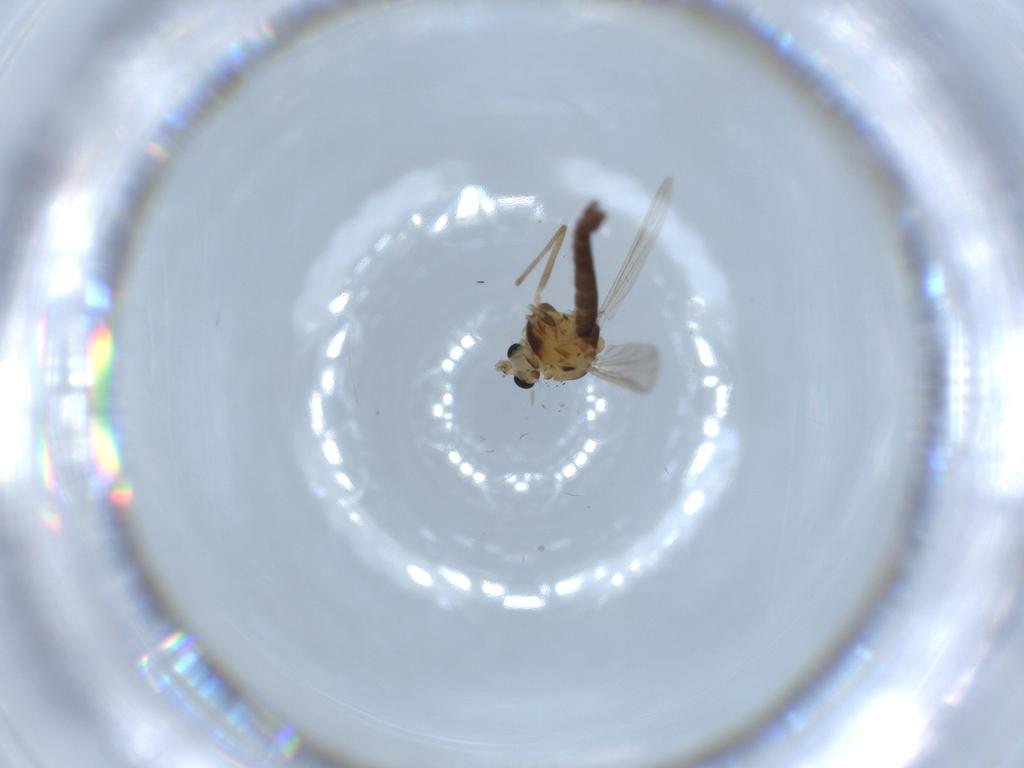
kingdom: Animalia
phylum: Arthropoda
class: Insecta
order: Diptera
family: Chironomidae
